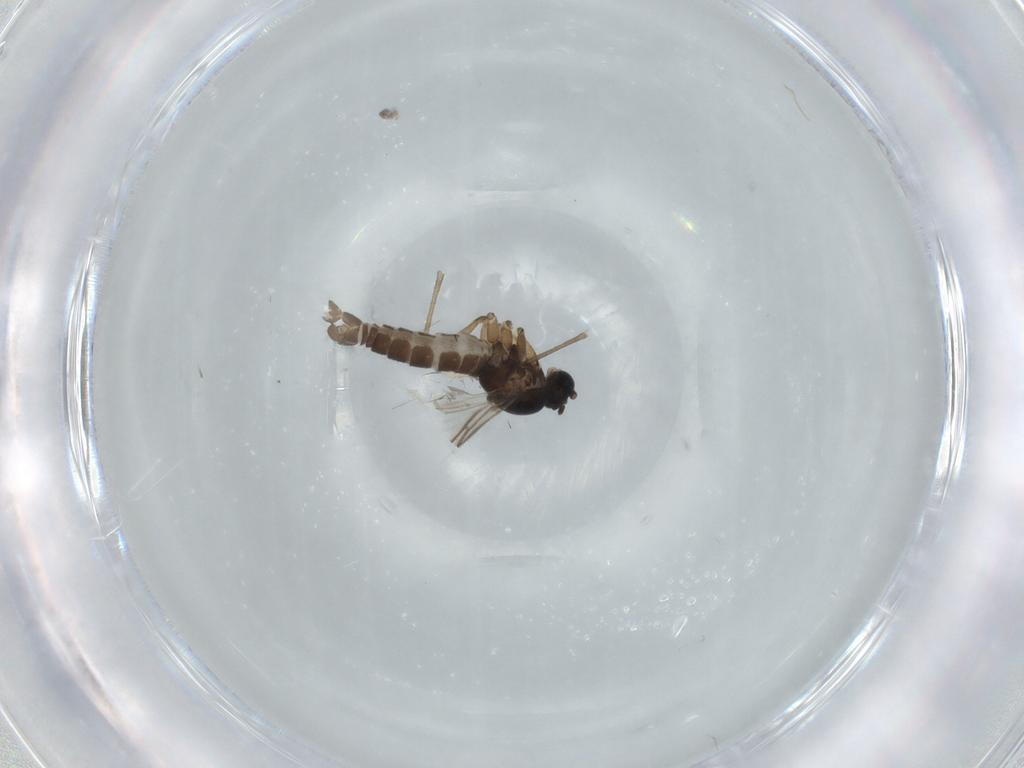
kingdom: Animalia
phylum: Arthropoda
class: Insecta
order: Diptera
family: Sciaridae
